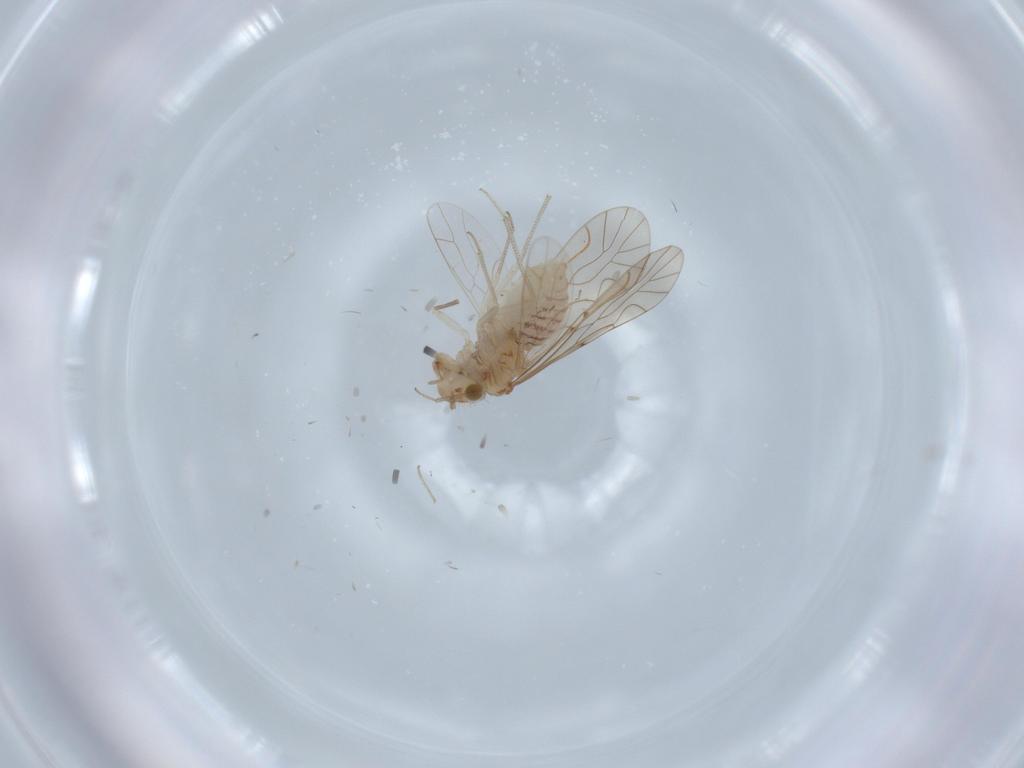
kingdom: Animalia
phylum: Arthropoda
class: Insecta
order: Psocodea
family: Lachesillidae
